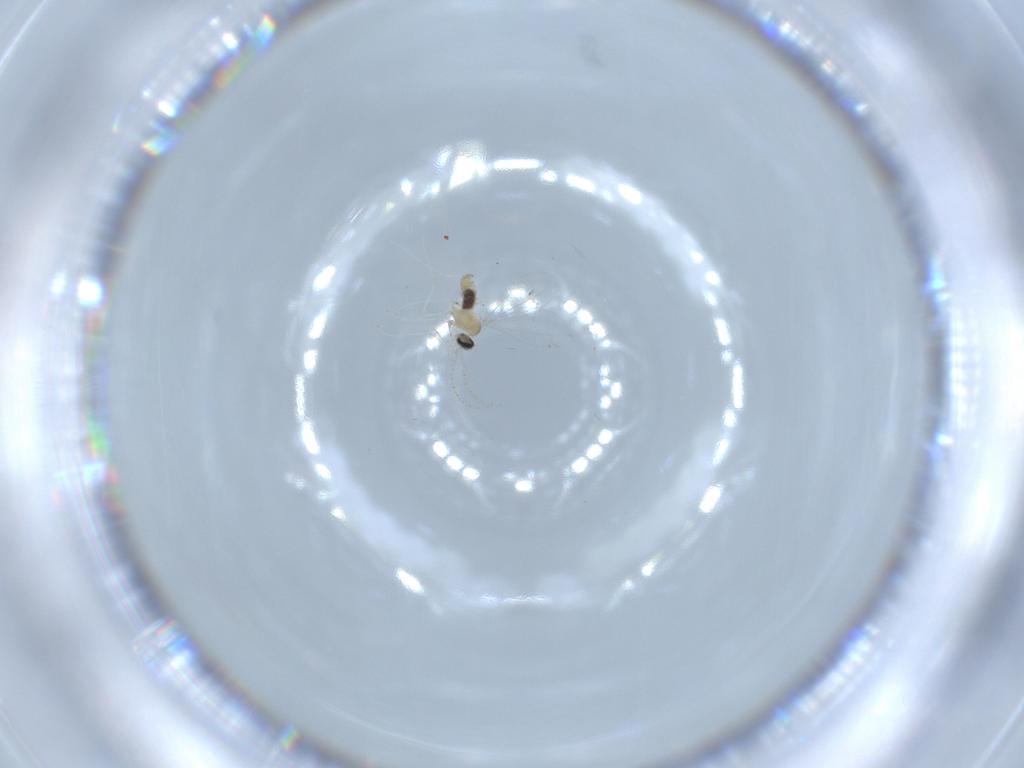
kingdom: Animalia
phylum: Arthropoda
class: Insecta
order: Diptera
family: Cecidomyiidae
